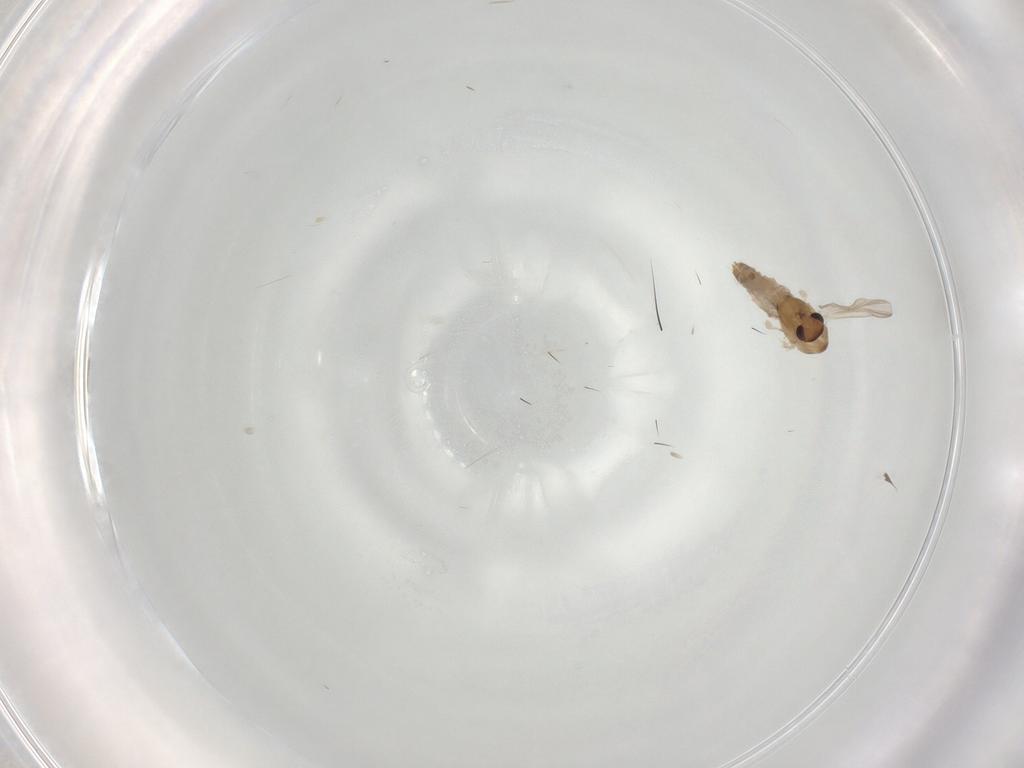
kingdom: Animalia
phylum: Arthropoda
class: Insecta
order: Diptera
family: Chironomidae
